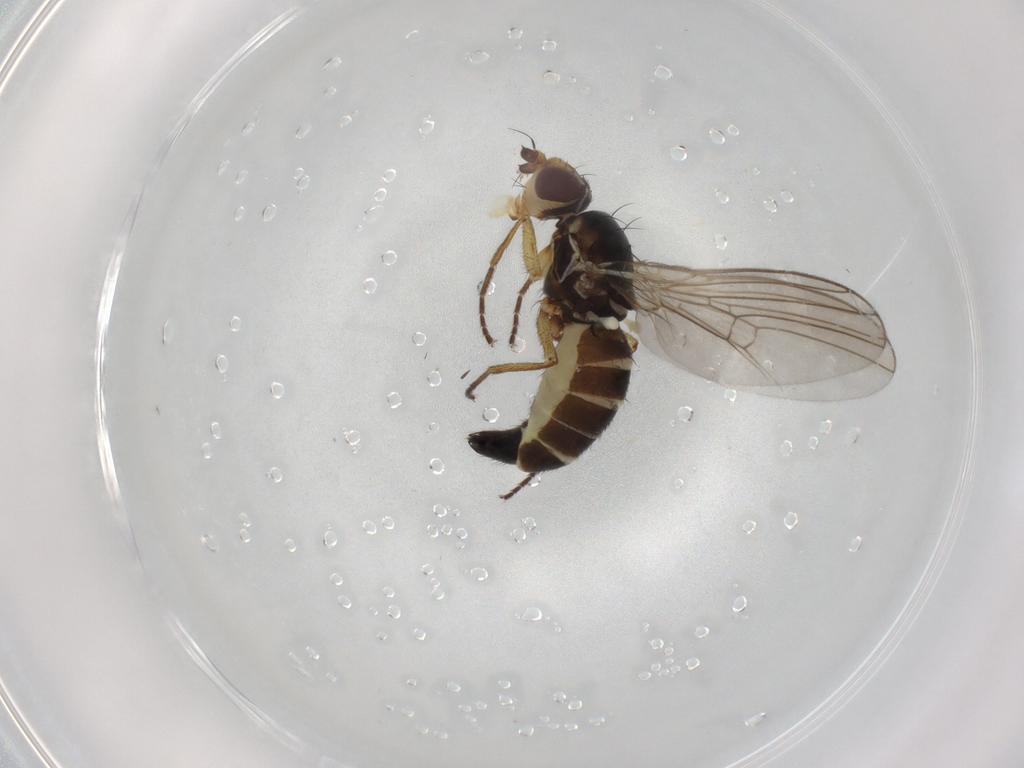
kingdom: Animalia
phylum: Arthropoda
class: Insecta
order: Diptera
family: Agromyzidae
